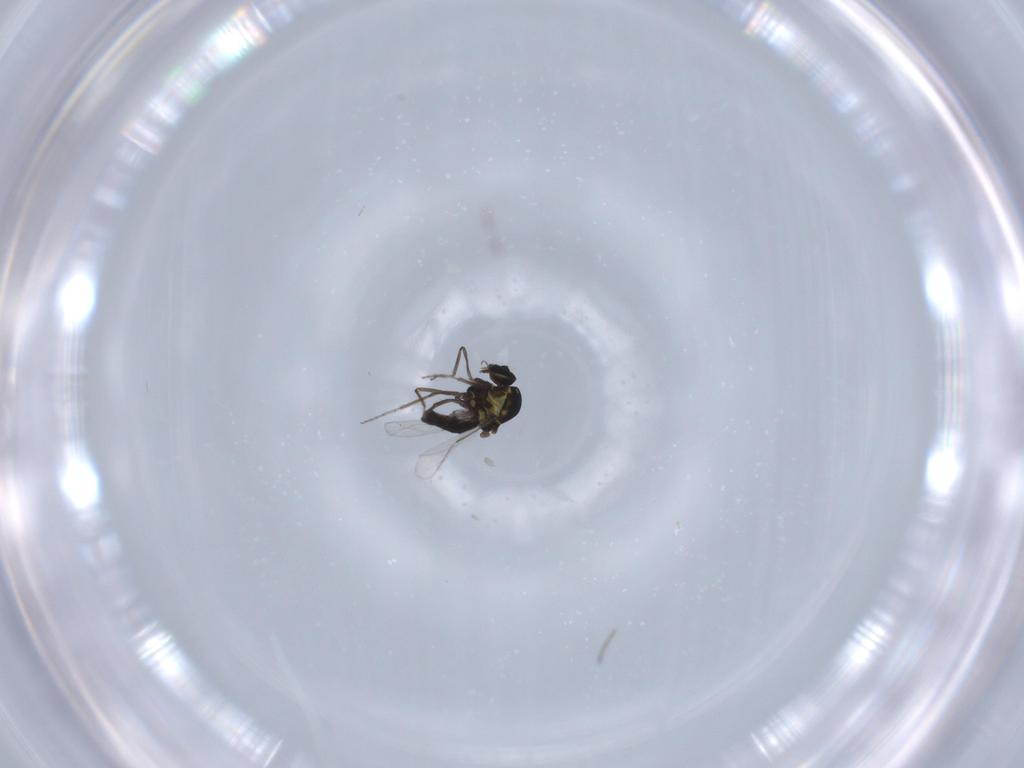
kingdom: Animalia
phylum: Arthropoda
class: Insecta
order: Diptera
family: Ceratopogonidae
